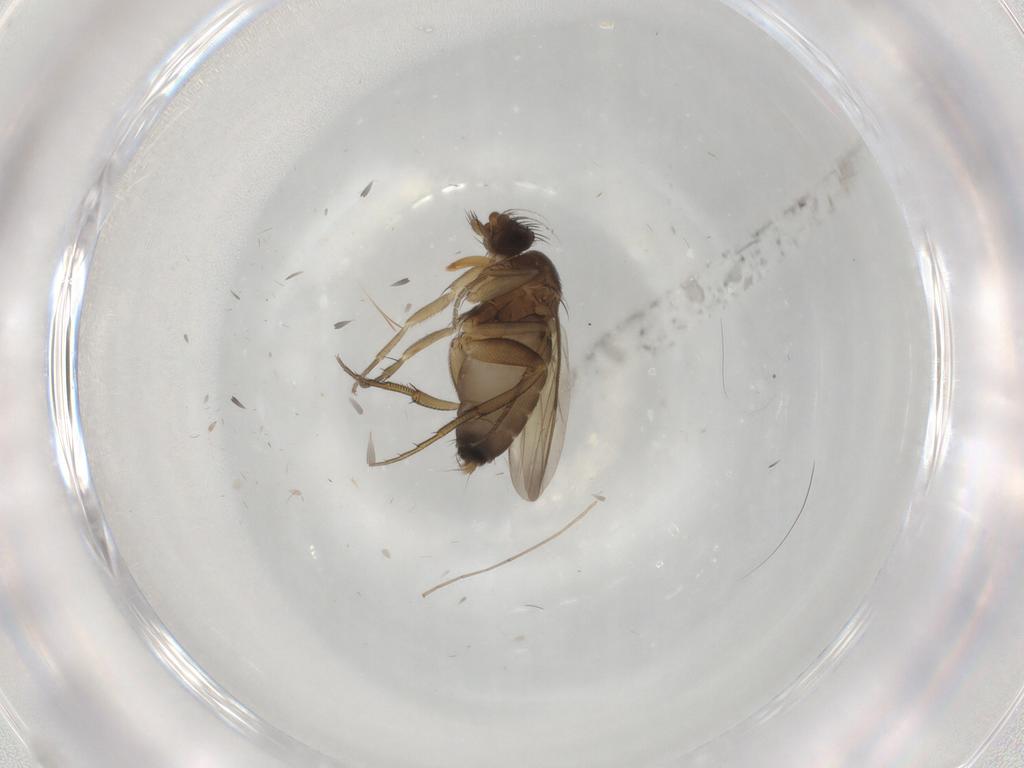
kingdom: Animalia
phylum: Arthropoda
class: Insecta
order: Diptera
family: Phoridae
